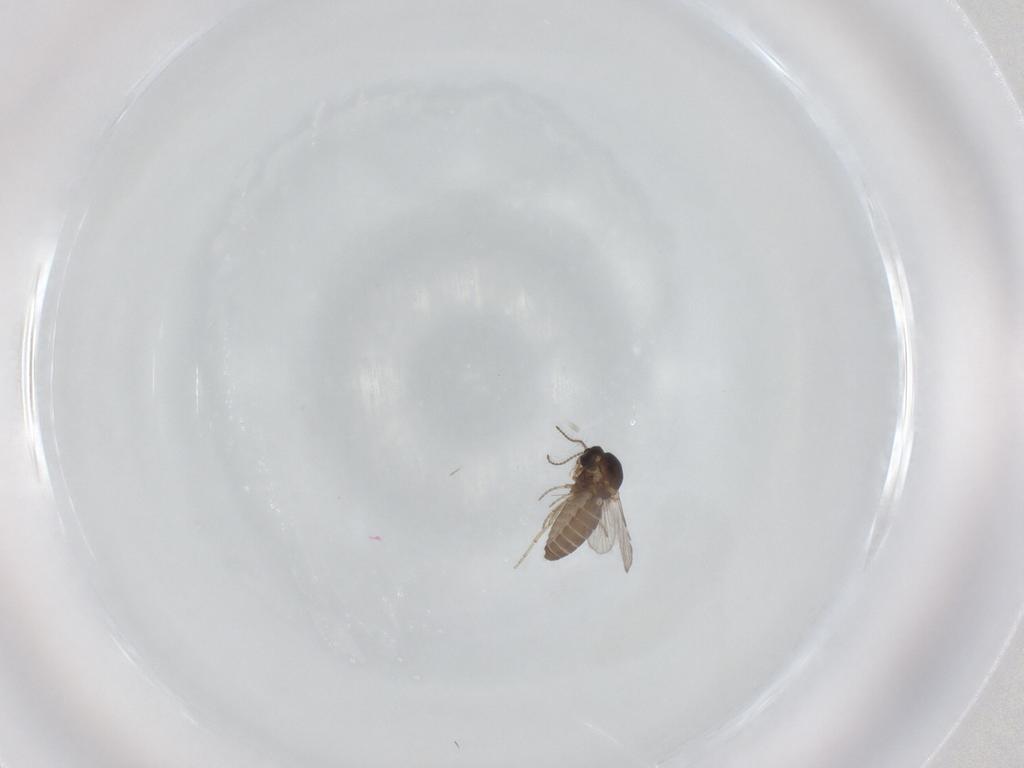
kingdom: Animalia
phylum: Arthropoda
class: Insecta
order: Diptera
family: Ceratopogonidae
